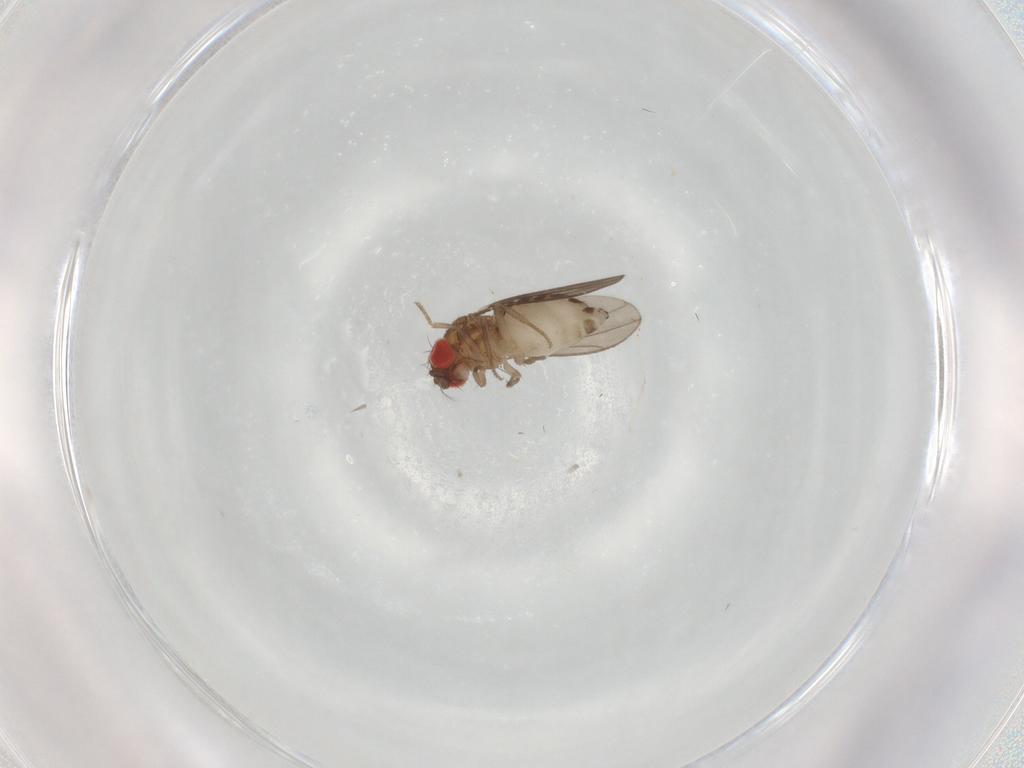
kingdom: Animalia
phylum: Arthropoda
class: Insecta
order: Diptera
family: Drosophilidae
